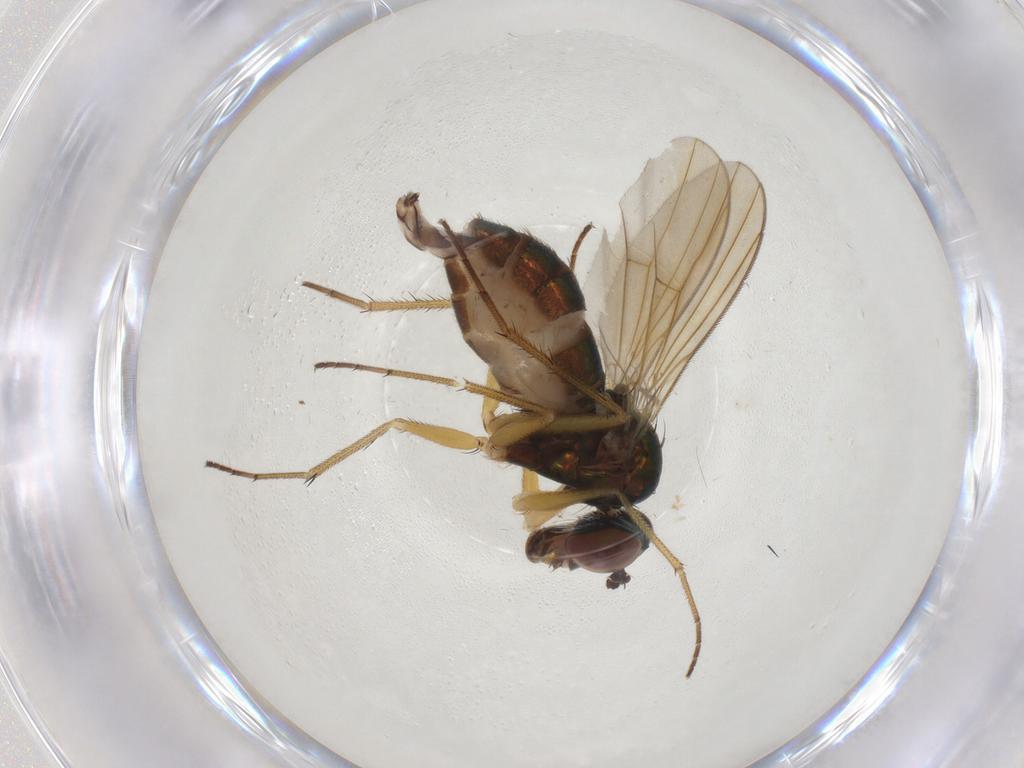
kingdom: Animalia
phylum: Arthropoda
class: Insecta
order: Diptera
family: Dolichopodidae
